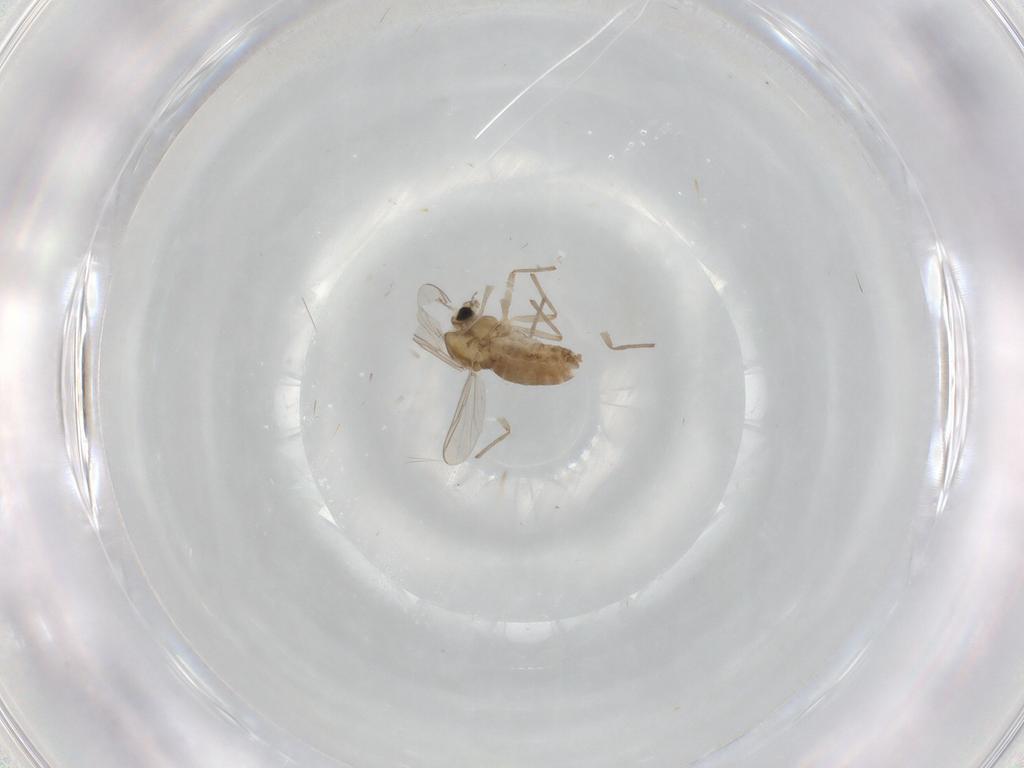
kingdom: Animalia
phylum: Arthropoda
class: Insecta
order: Diptera
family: Chironomidae
